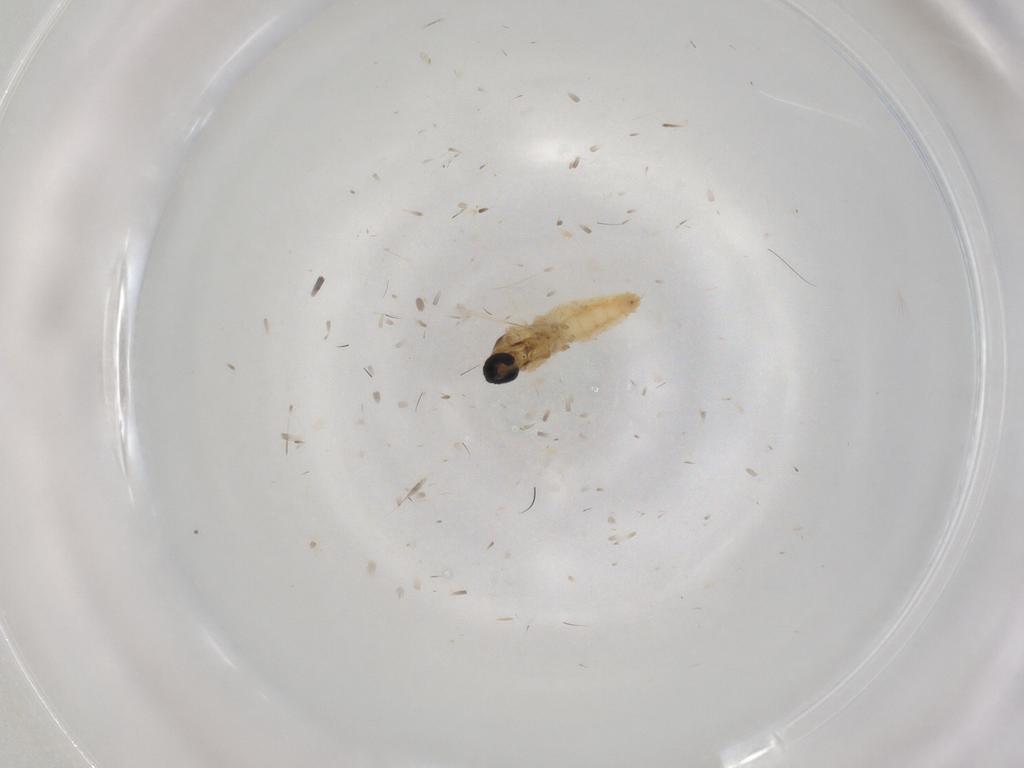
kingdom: Animalia
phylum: Arthropoda
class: Insecta
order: Diptera
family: Cecidomyiidae
